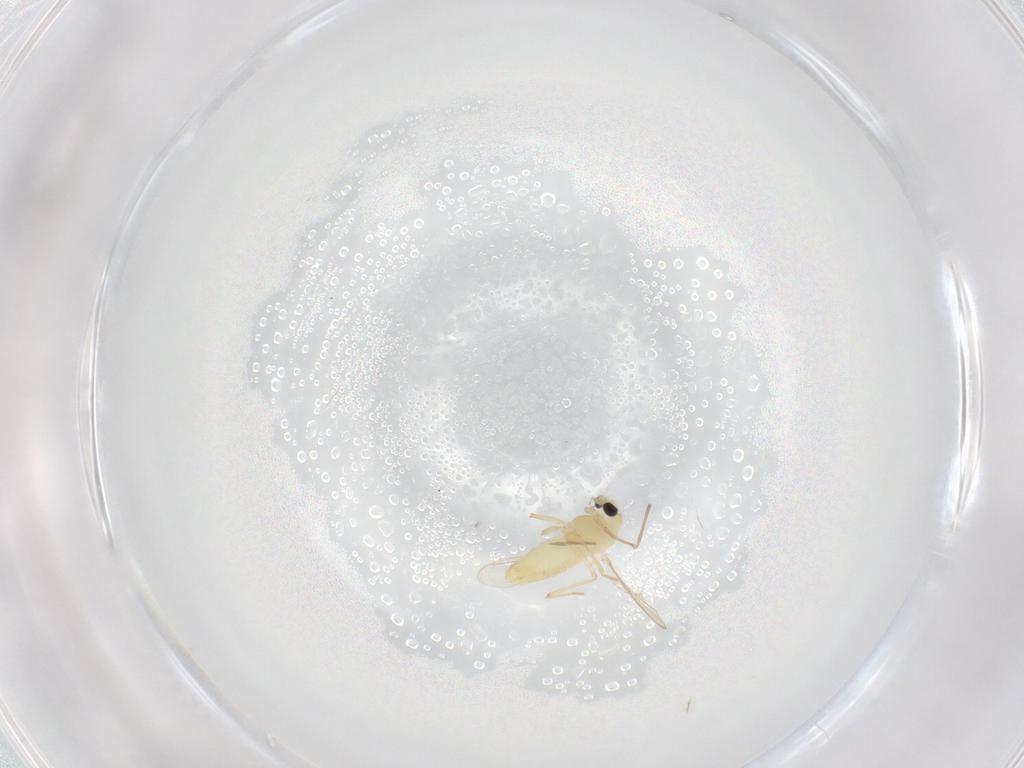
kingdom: Animalia
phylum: Arthropoda
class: Insecta
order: Diptera
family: Chironomidae
